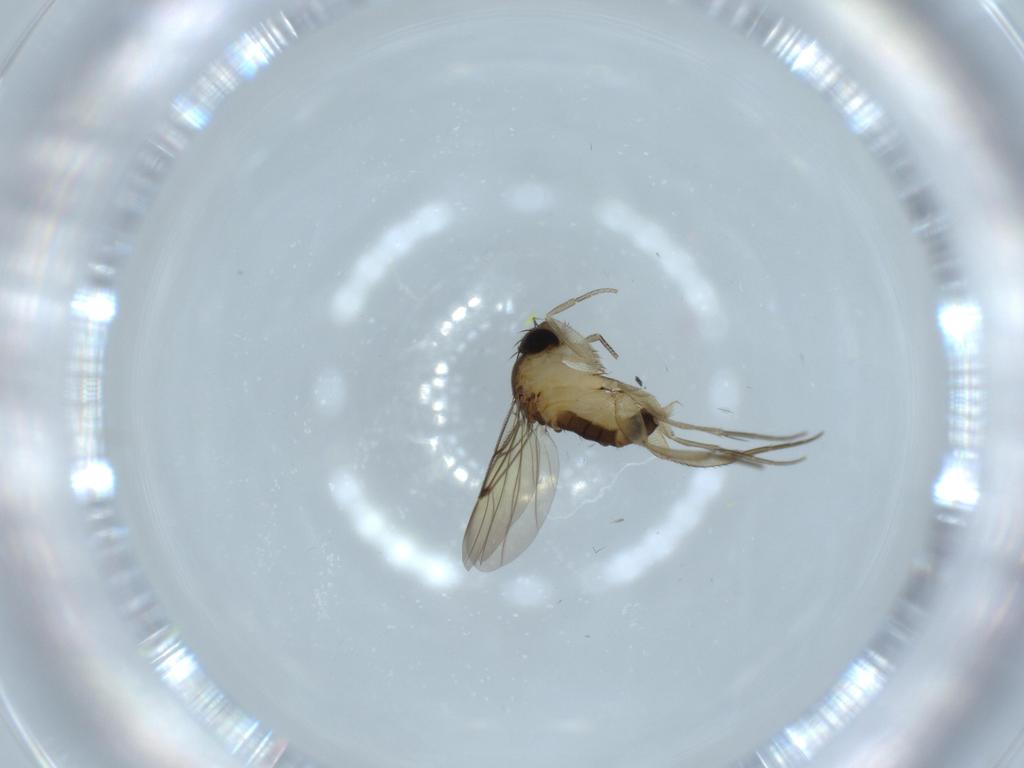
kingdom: Animalia
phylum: Arthropoda
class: Insecta
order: Diptera
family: Phoridae
